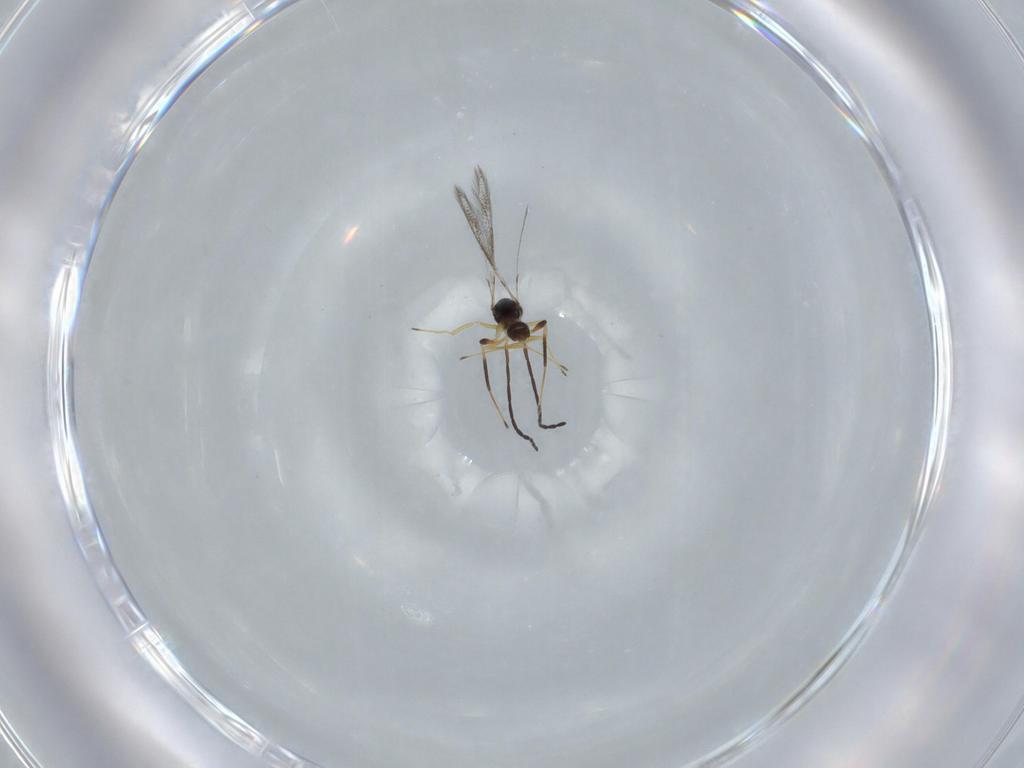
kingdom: Animalia
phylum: Arthropoda
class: Insecta
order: Hymenoptera
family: Mymaridae
